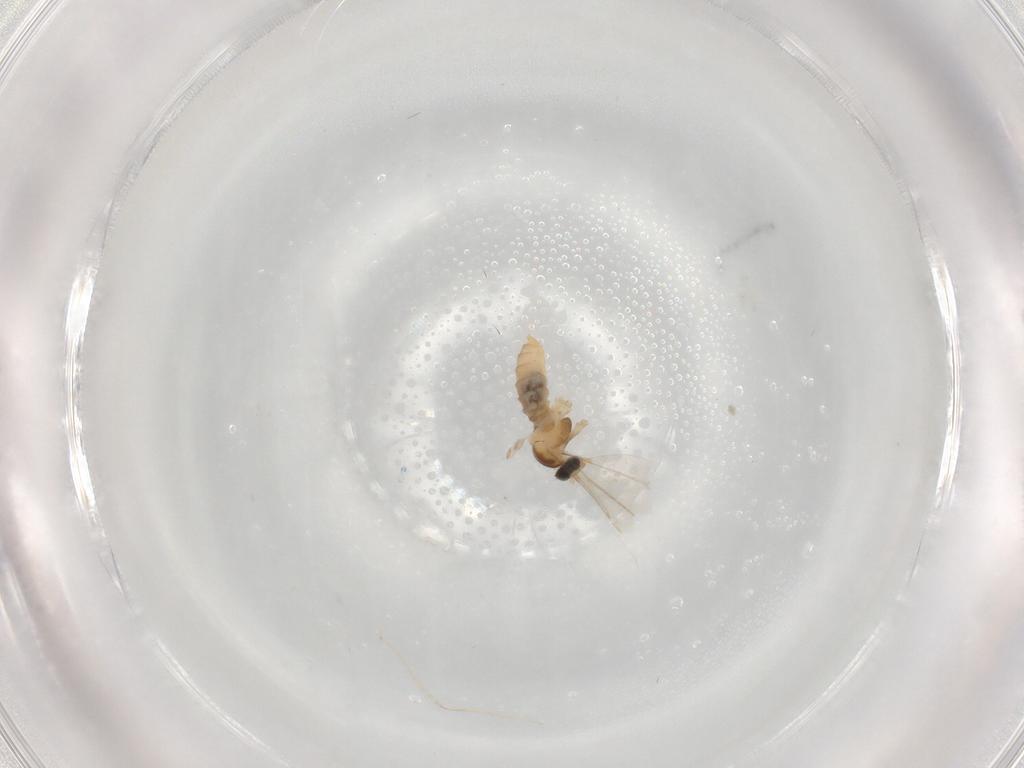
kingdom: Animalia
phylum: Arthropoda
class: Insecta
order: Diptera
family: Cecidomyiidae
